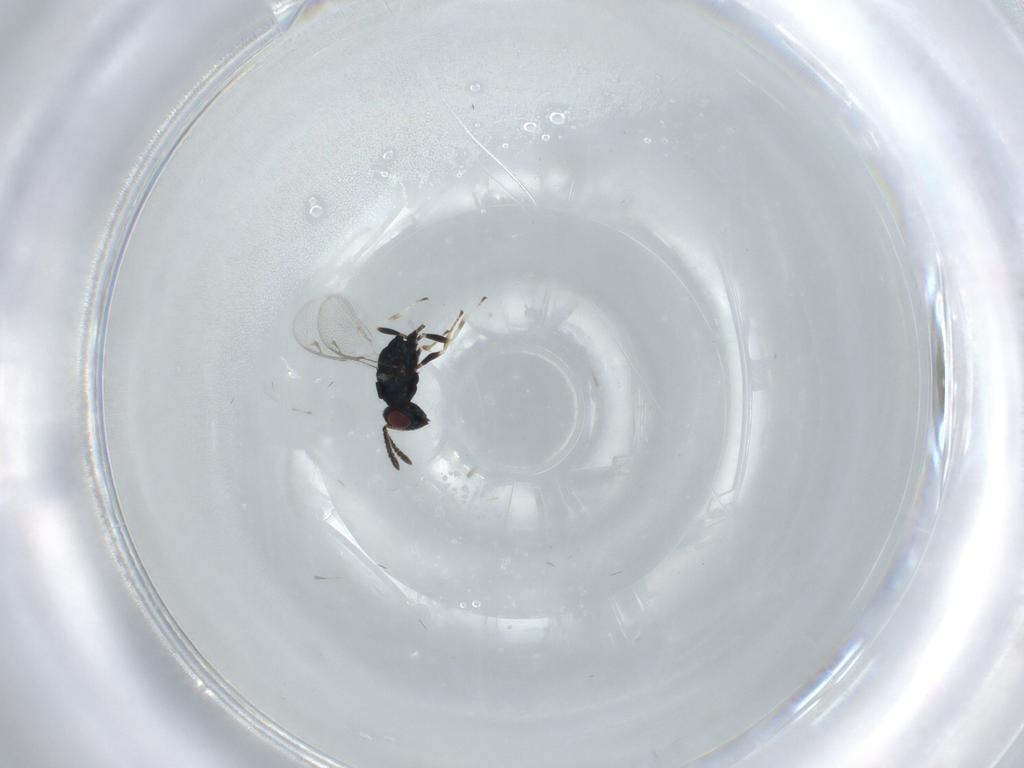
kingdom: Animalia
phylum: Arthropoda
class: Insecta
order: Hymenoptera
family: Pteromalidae
